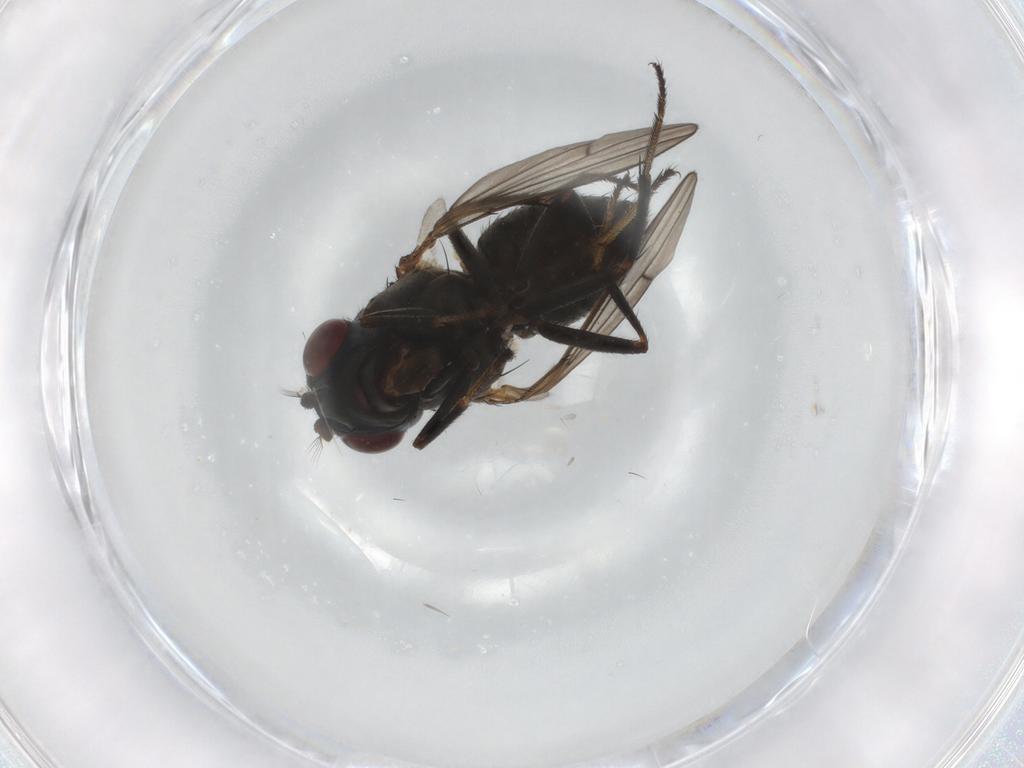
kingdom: Animalia
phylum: Arthropoda
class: Insecta
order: Diptera
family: Ephydridae
